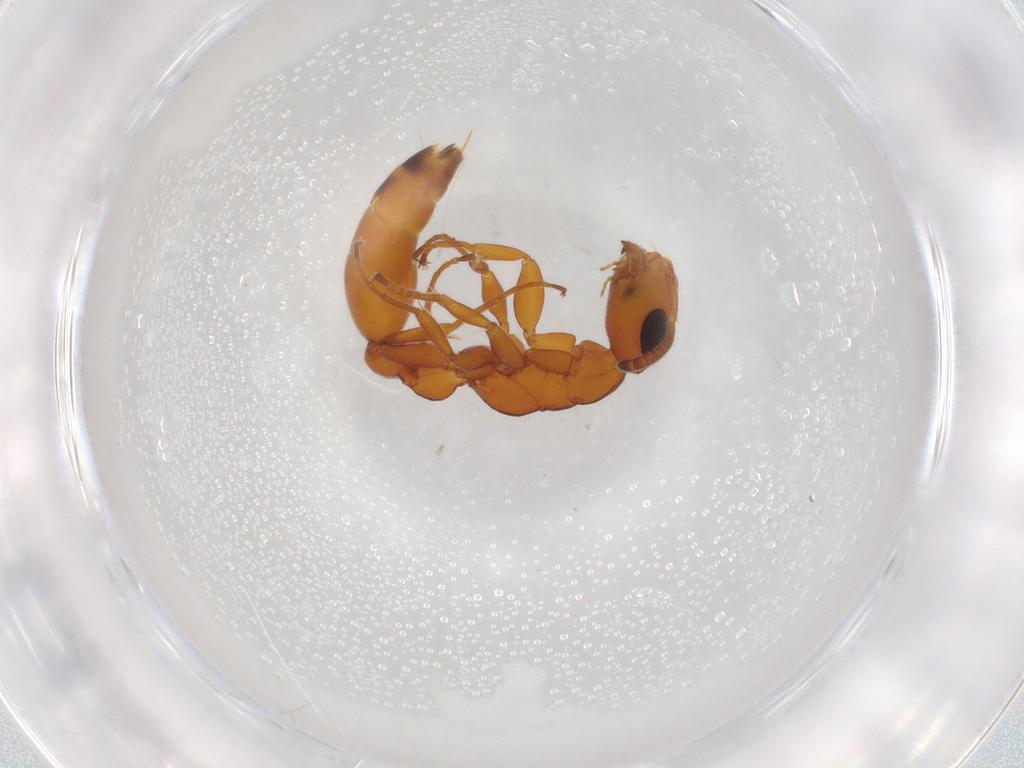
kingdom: Animalia
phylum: Arthropoda
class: Insecta
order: Hymenoptera
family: Formicidae
